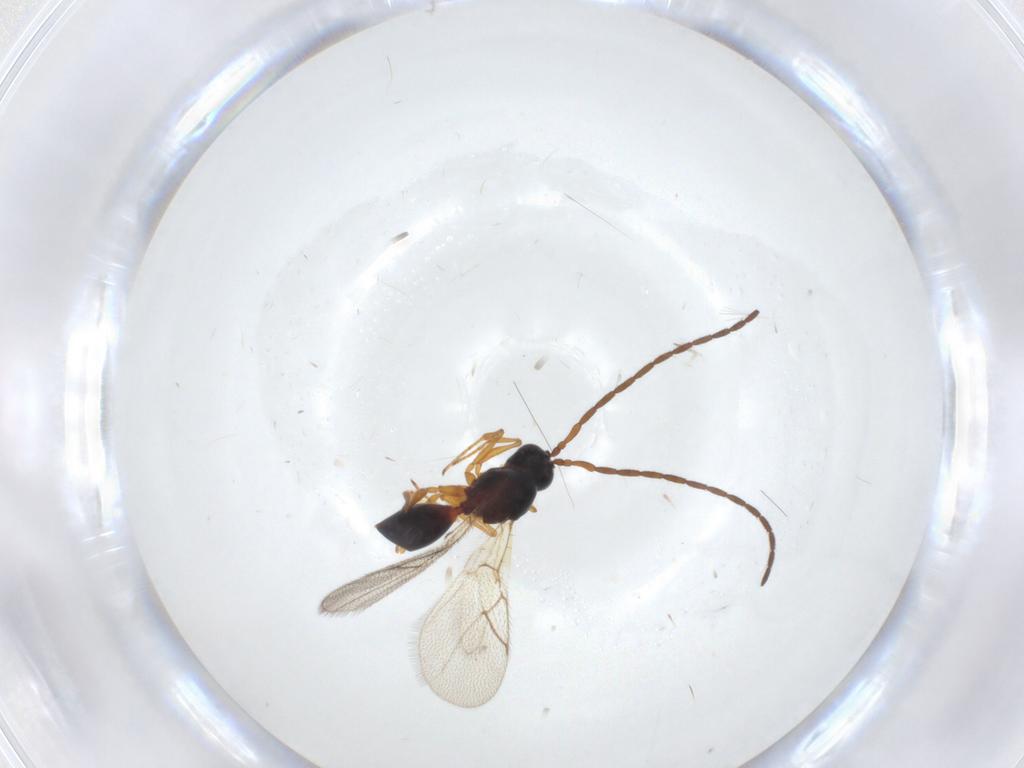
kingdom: Animalia
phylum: Arthropoda
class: Insecta
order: Hymenoptera
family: Figitidae
